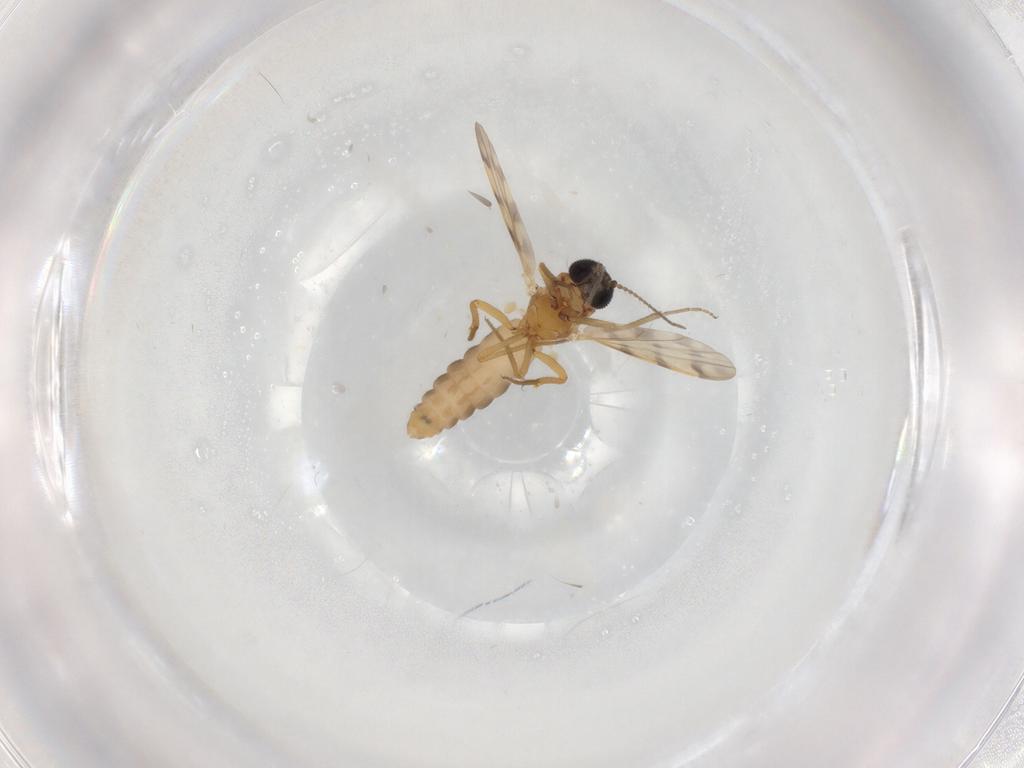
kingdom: Animalia
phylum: Arthropoda
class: Insecta
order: Diptera
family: Ceratopogonidae
